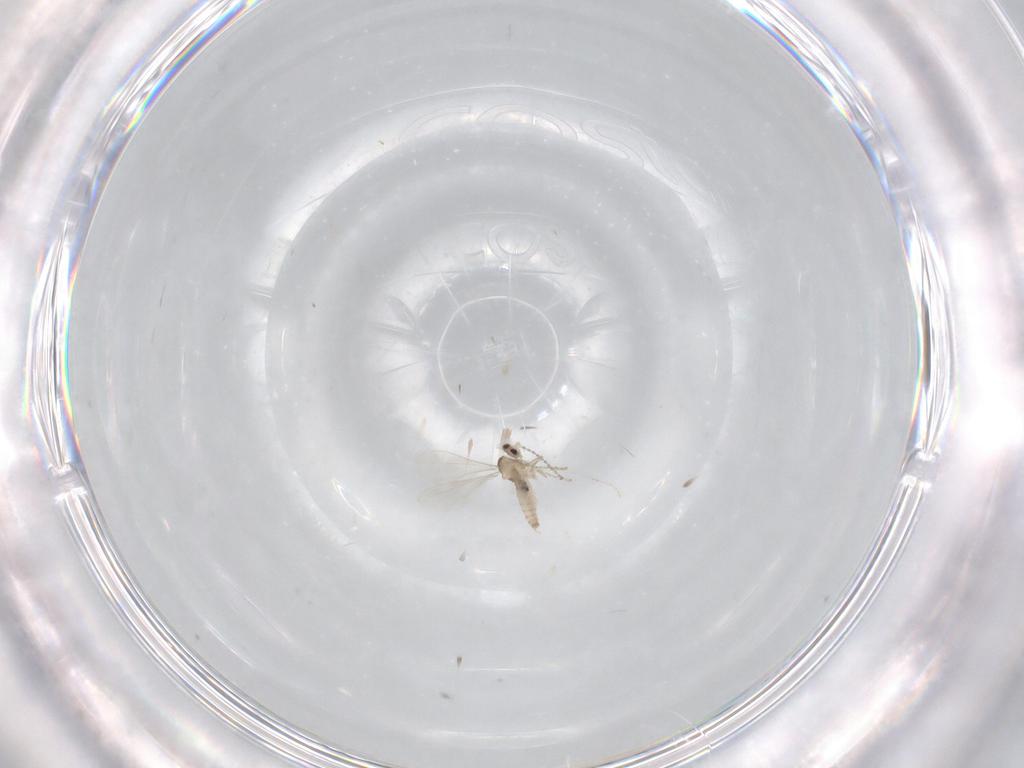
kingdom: Animalia
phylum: Arthropoda
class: Insecta
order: Diptera
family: Cecidomyiidae
